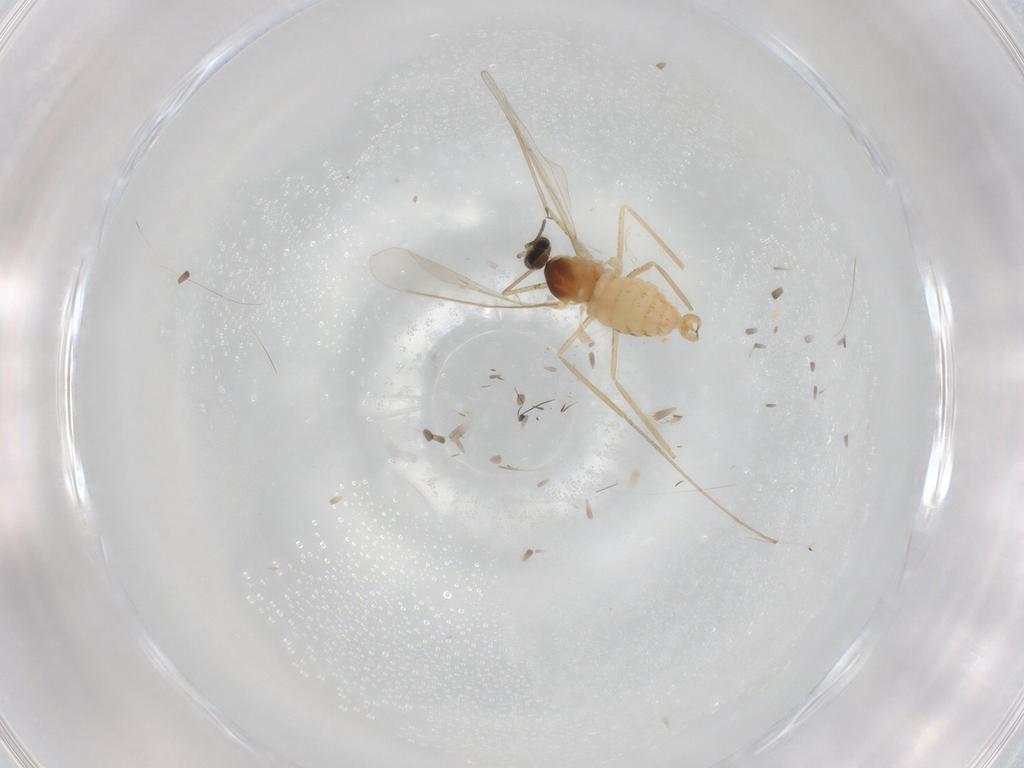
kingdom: Animalia
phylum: Arthropoda
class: Insecta
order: Diptera
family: Cecidomyiidae
